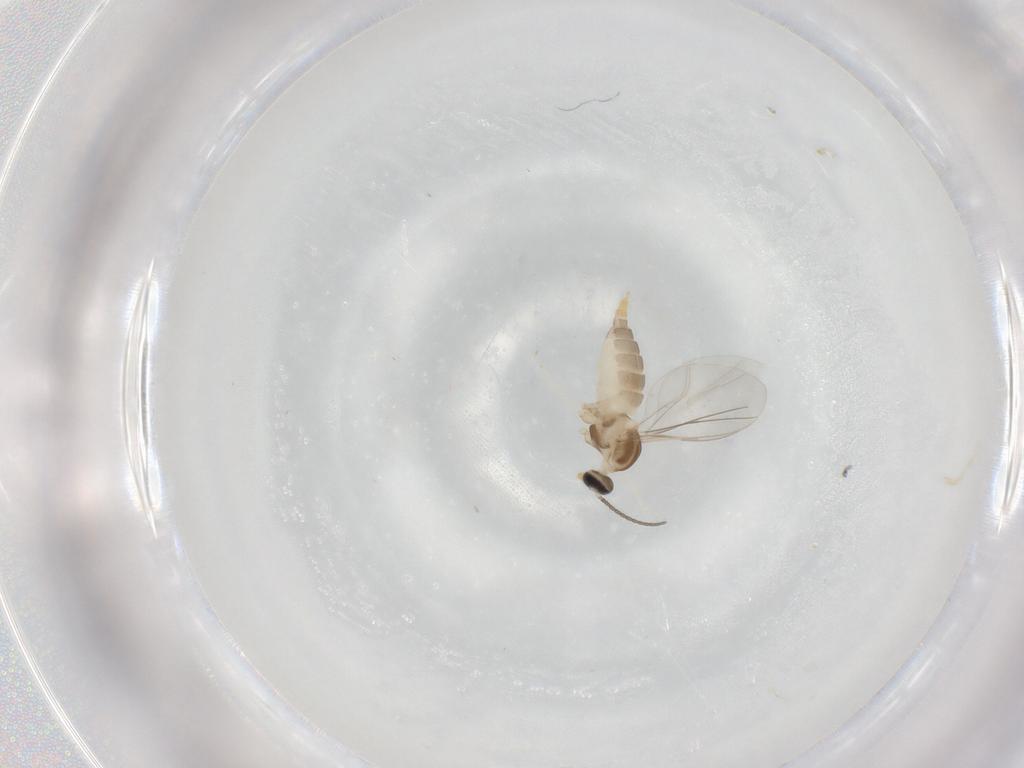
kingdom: Animalia
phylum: Arthropoda
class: Insecta
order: Diptera
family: Cecidomyiidae
